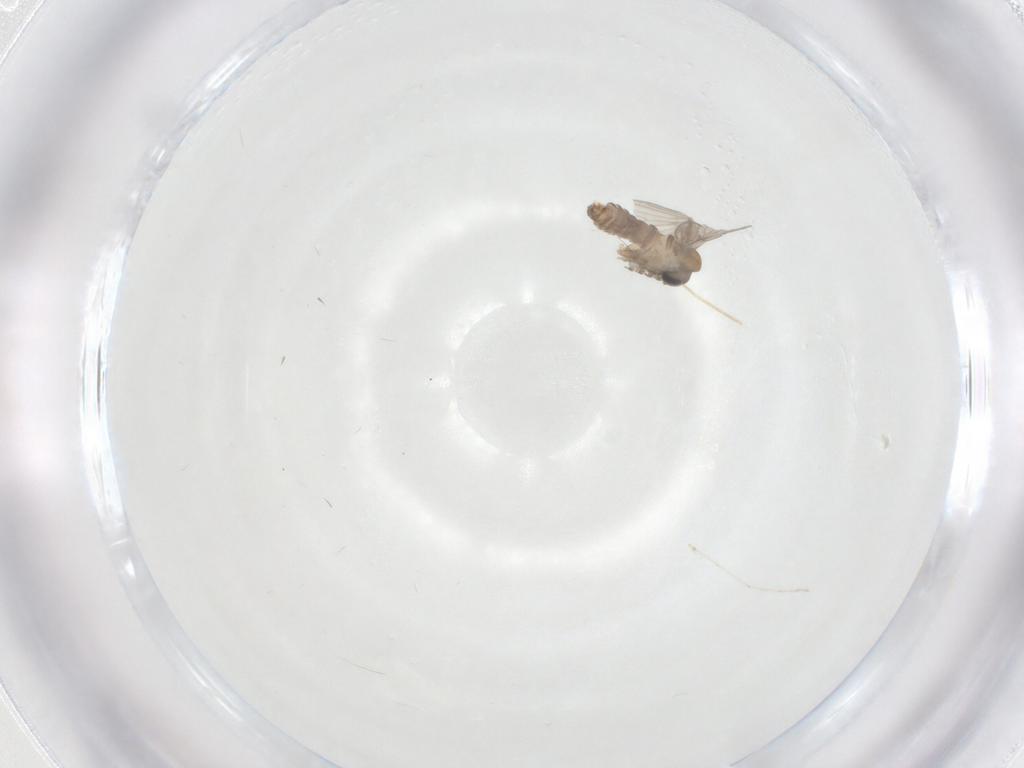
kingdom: Animalia
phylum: Arthropoda
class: Insecta
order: Diptera
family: Chironomidae
